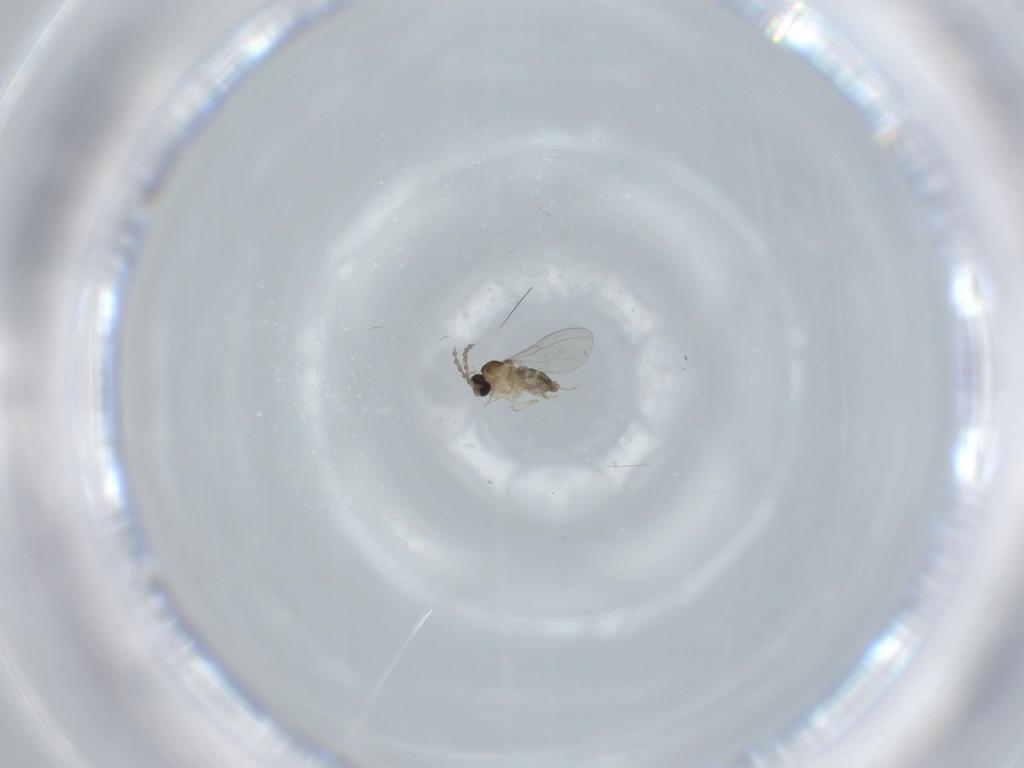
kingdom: Animalia
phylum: Arthropoda
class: Insecta
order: Diptera
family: Cecidomyiidae
